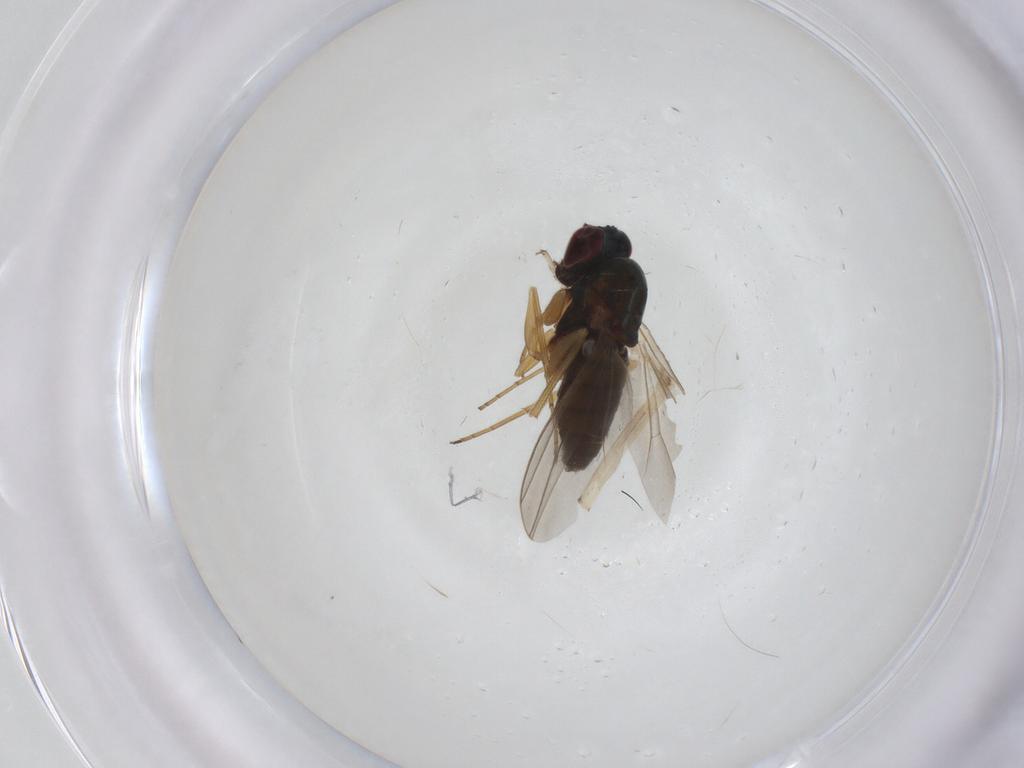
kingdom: Animalia
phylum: Arthropoda
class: Insecta
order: Diptera
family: Dolichopodidae
